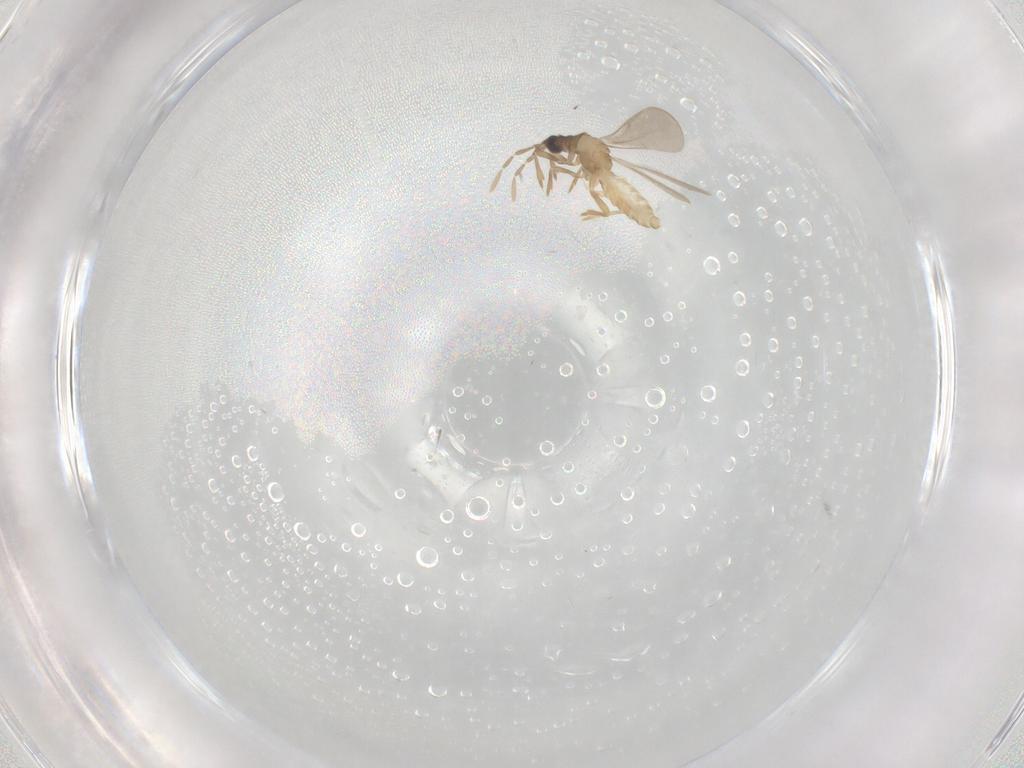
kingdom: Animalia
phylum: Arthropoda
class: Insecta
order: Hemiptera
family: Enicocephalidae
